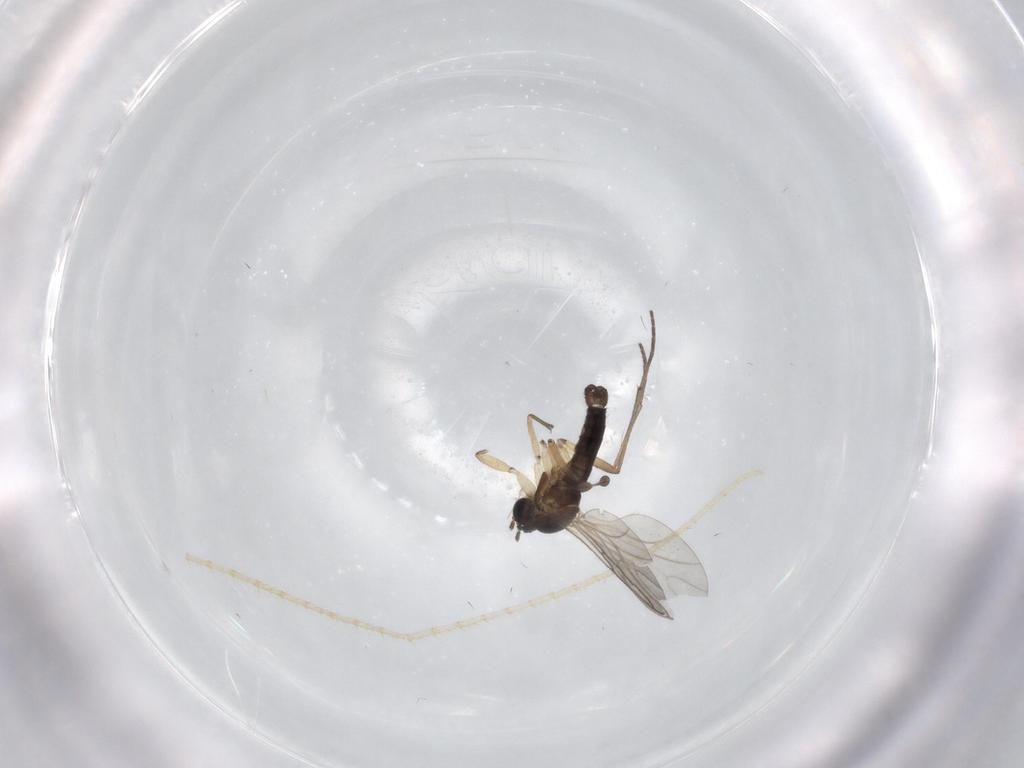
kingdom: Animalia
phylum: Arthropoda
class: Insecta
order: Diptera
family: Sciaridae
